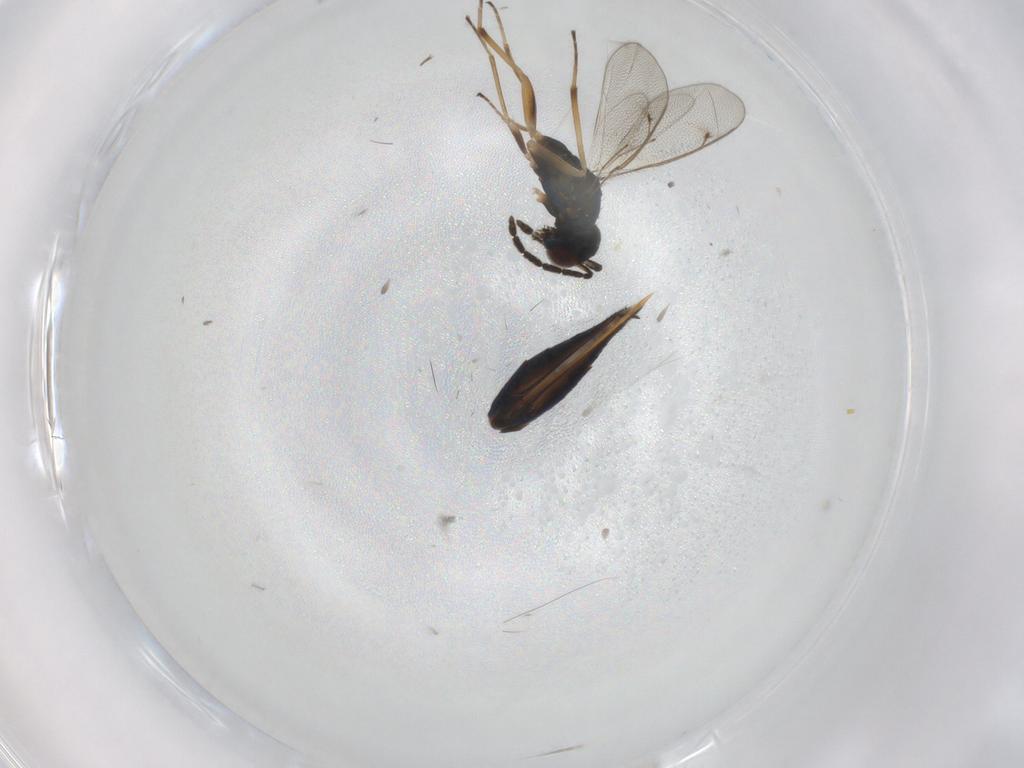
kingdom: Animalia
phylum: Arthropoda
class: Insecta
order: Hymenoptera
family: Eulophidae
